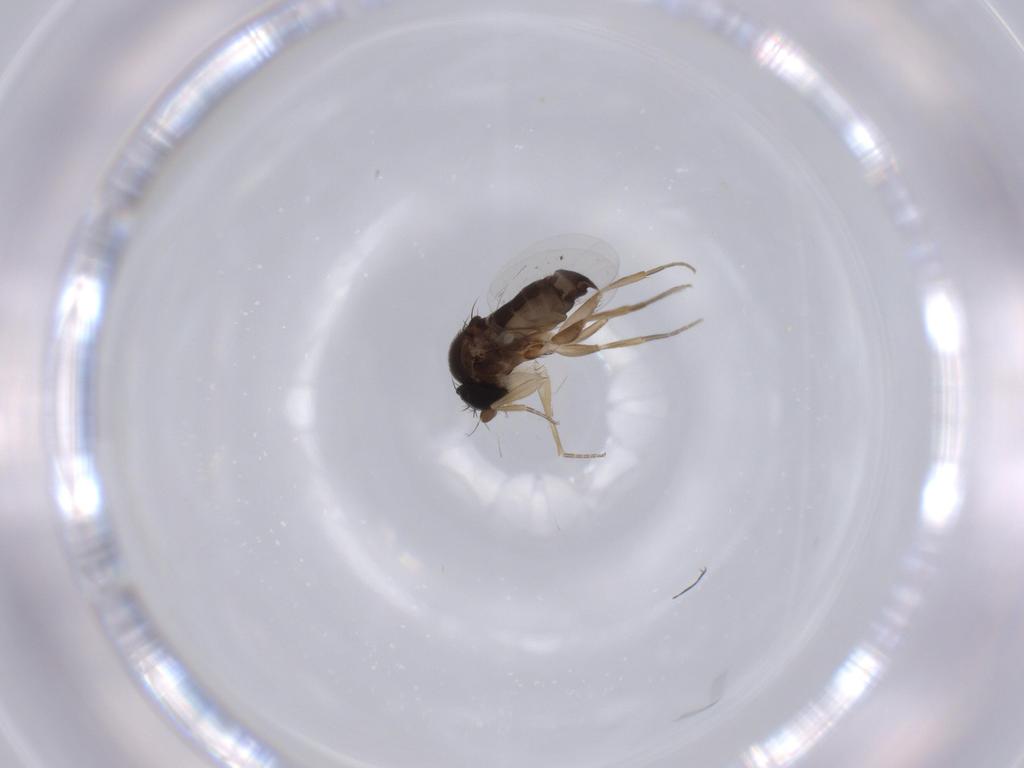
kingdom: Animalia
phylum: Arthropoda
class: Insecta
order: Diptera
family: Phoridae
